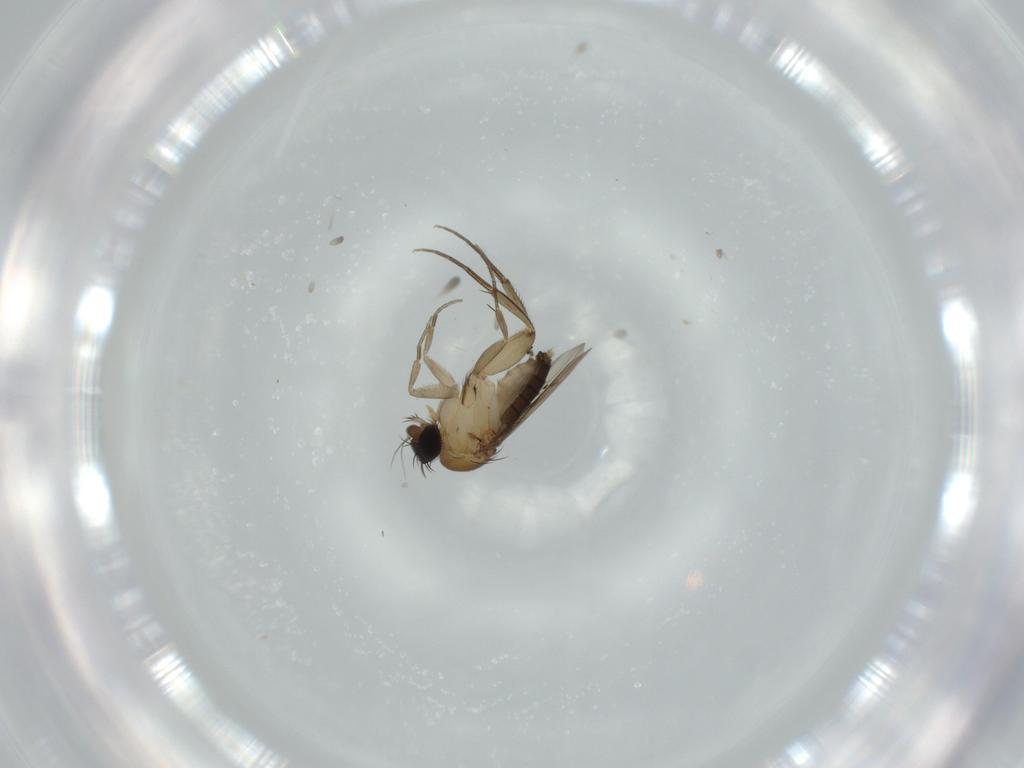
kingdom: Animalia
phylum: Arthropoda
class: Insecta
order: Diptera
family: Phoridae
